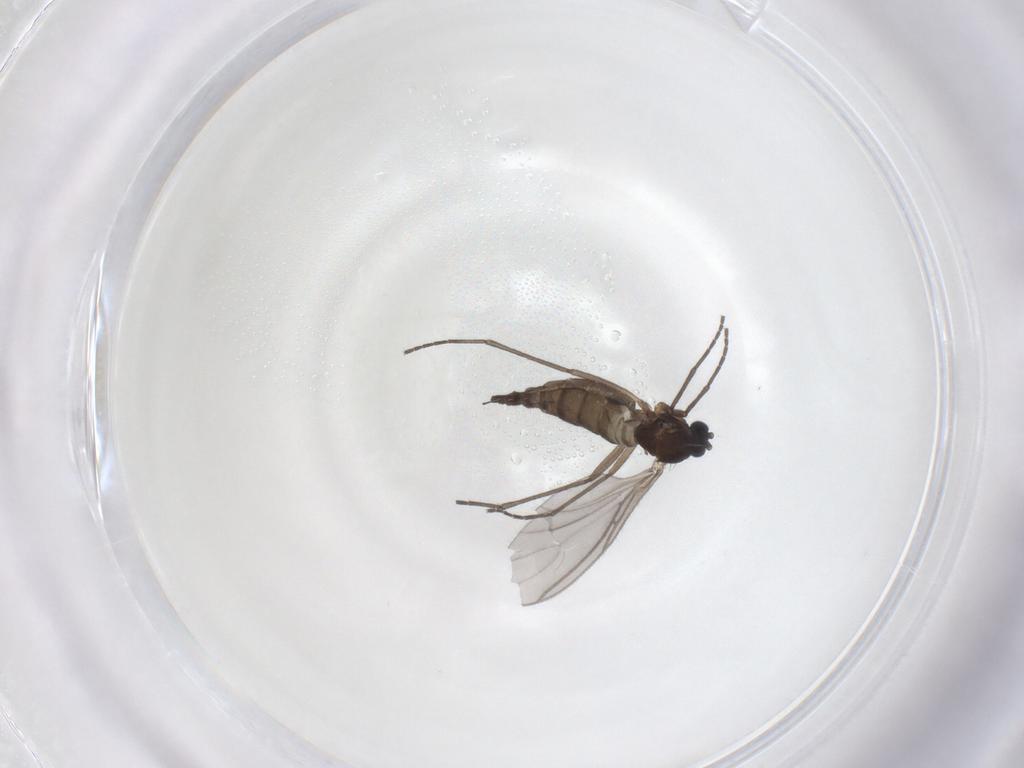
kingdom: Animalia
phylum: Arthropoda
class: Insecta
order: Diptera
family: Sciaridae
